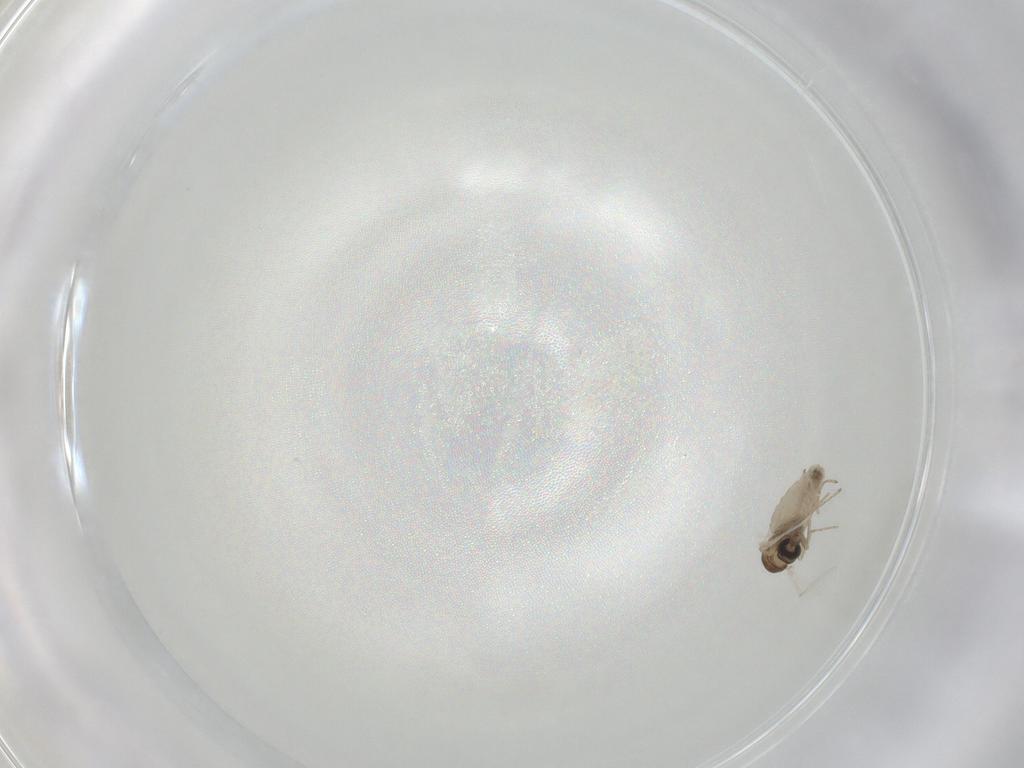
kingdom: Animalia
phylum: Arthropoda
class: Insecta
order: Diptera
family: Cecidomyiidae
